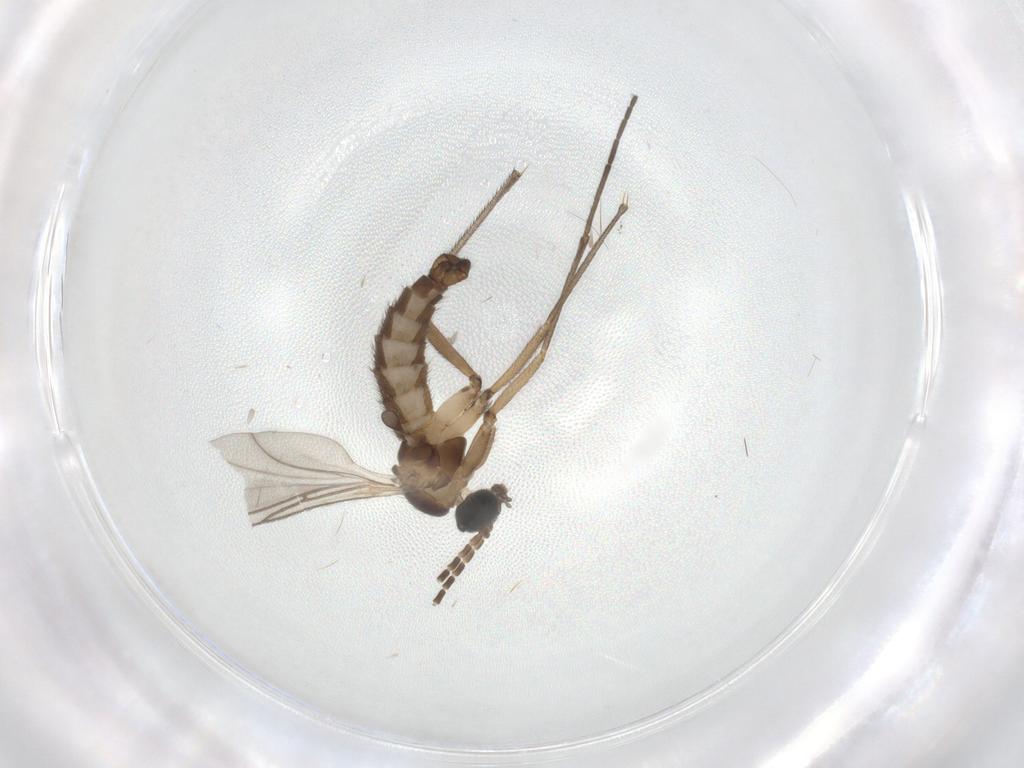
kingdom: Animalia
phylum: Arthropoda
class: Insecta
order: Diptera
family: Sciaridae
